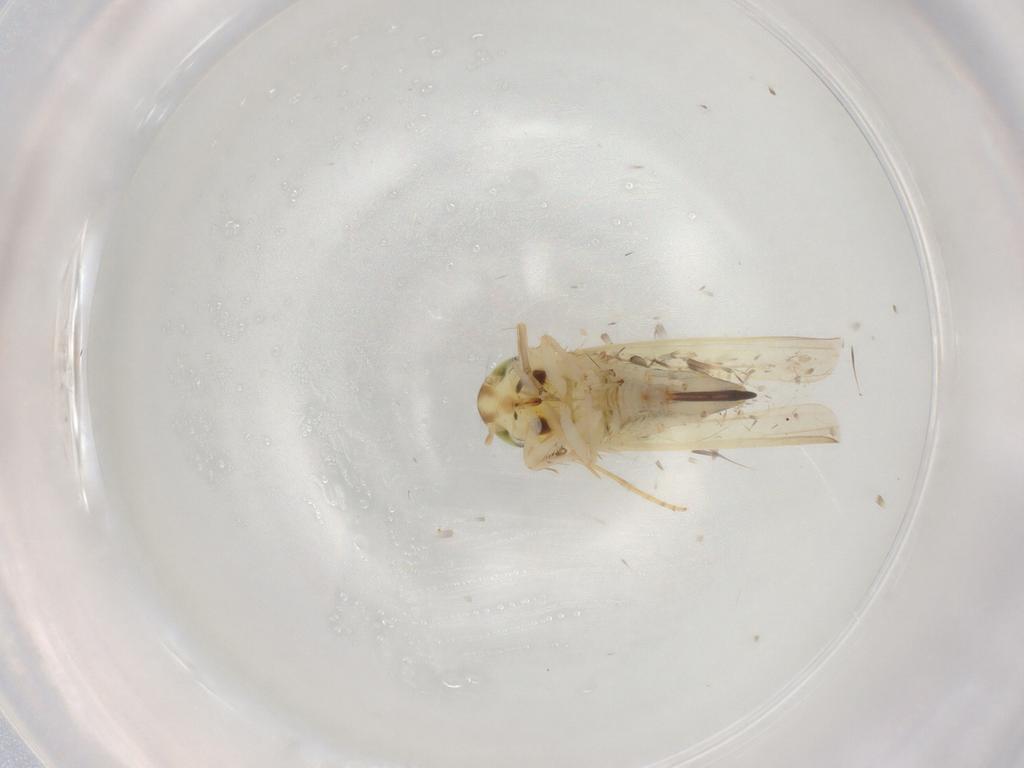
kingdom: Animalia
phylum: Arthropoda
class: Insecta
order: Hemiptera
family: Cicadellidae
